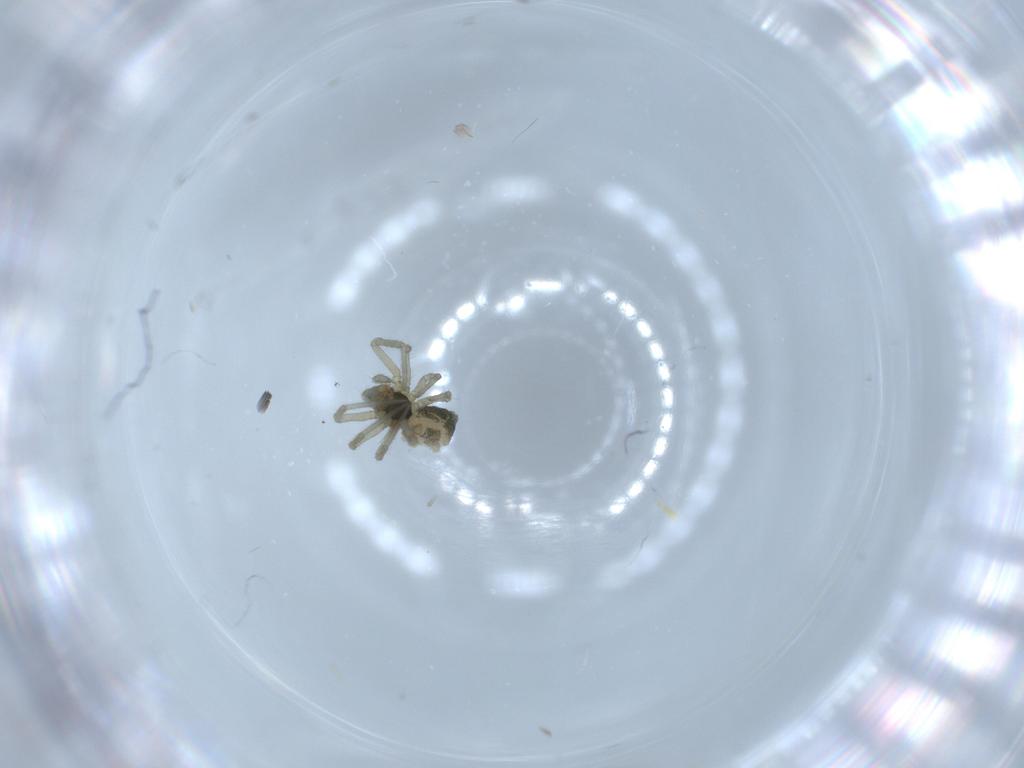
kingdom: Animalia
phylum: Arthropoda
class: Arachnida
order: Araneae
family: Linyphiidae
